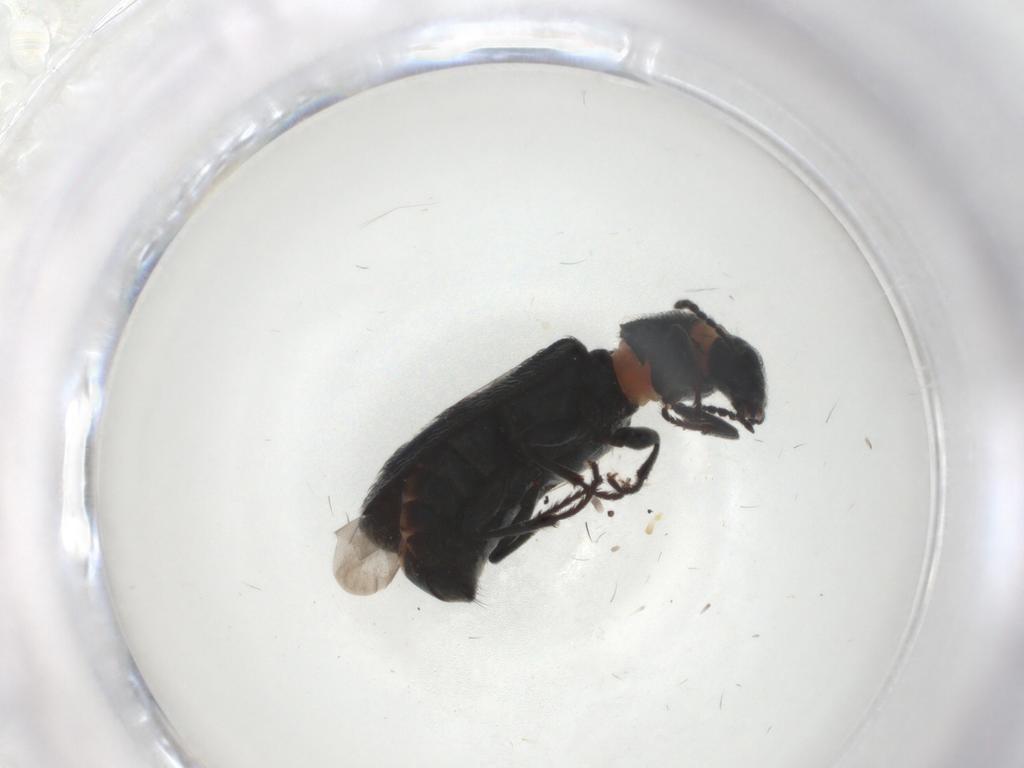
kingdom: Animalia
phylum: Arthropoda
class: Insecta
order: Coleoptera
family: Melyridae
